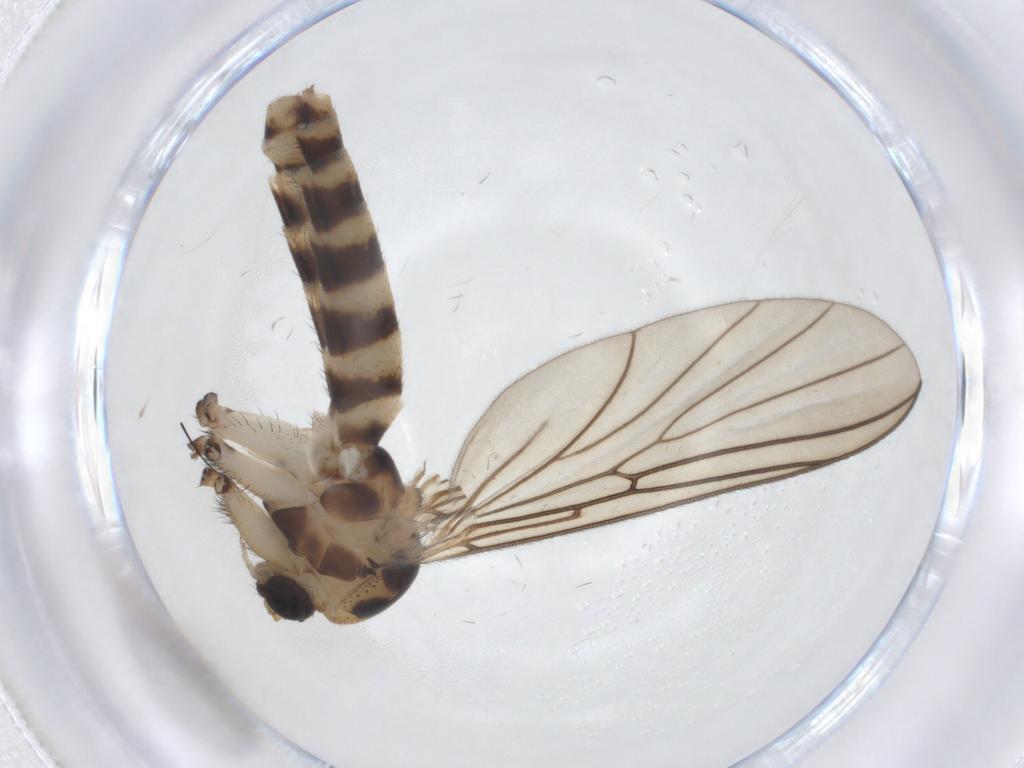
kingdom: Animalia
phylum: Arthropoda
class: Insecta
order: Diptera
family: Mycetophilidae
